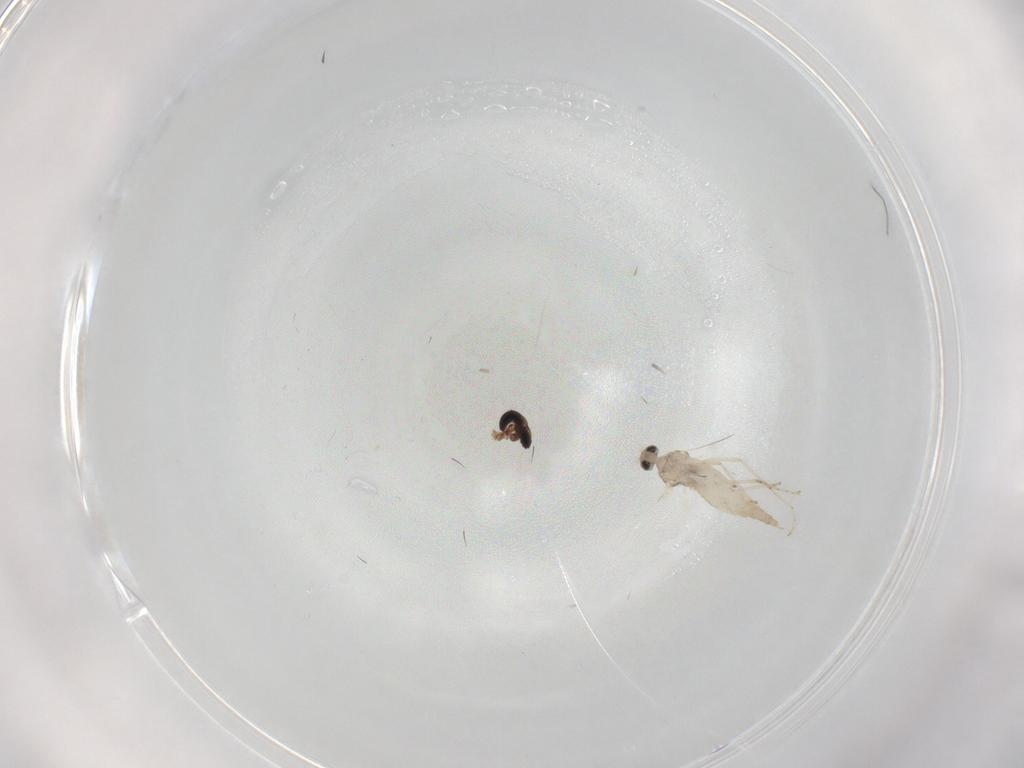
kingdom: Animalia
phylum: Arthropoda
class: Insecta
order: Diptera
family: Cecidomyiidae
